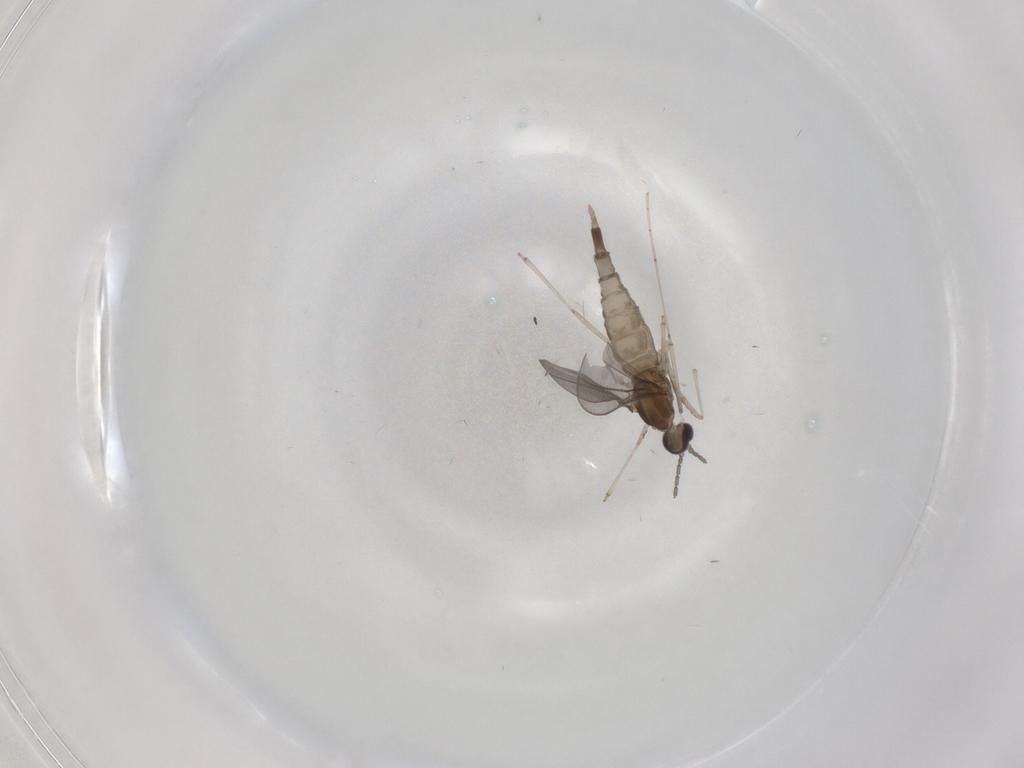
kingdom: Animalia
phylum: Arthropoda
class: Insecta
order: Diptera
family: Cecidomyiidae
